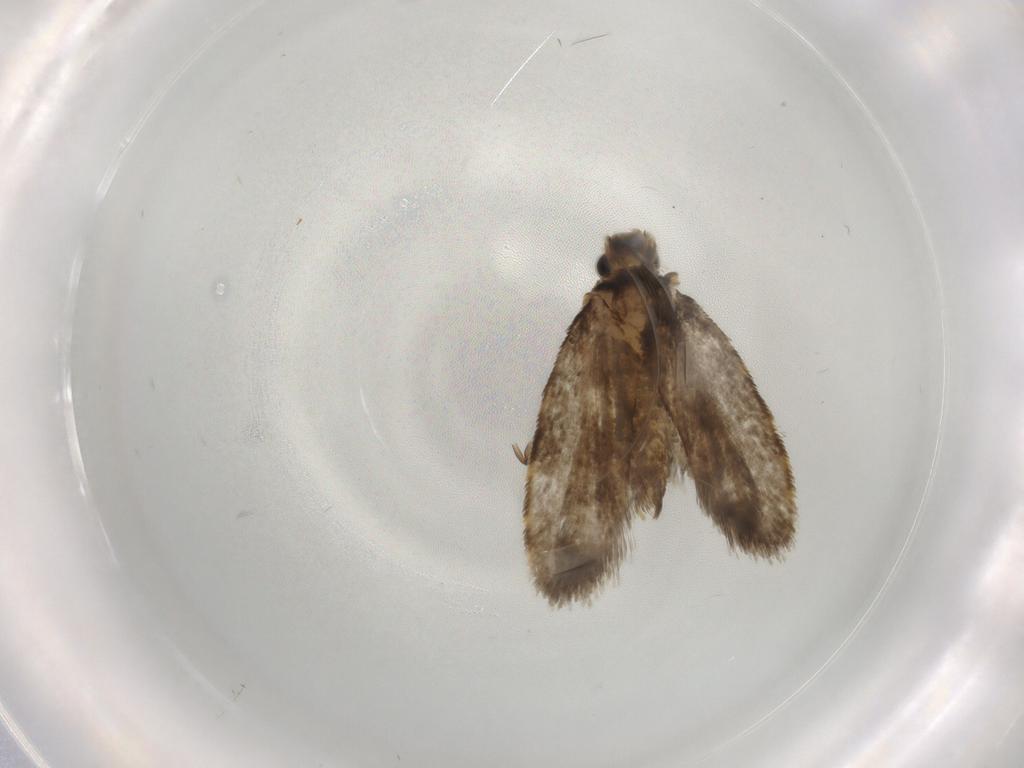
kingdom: Animalia
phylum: Arthropoda
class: Insecta
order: Lepidoptera
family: Psychidae
